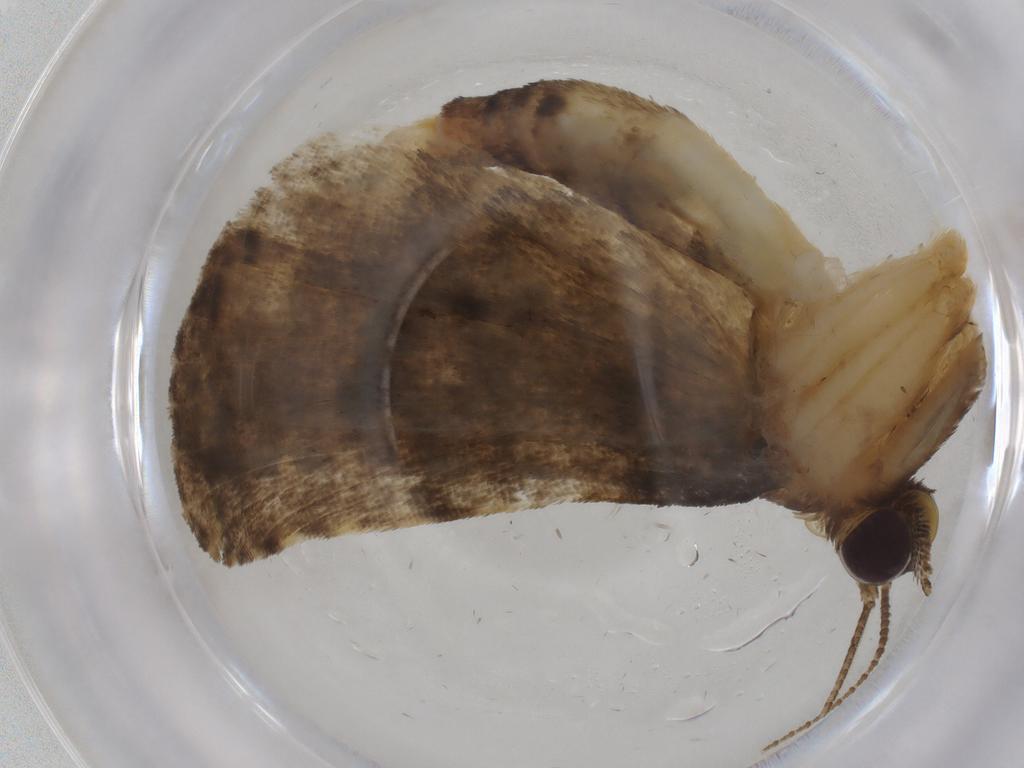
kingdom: Animalia
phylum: Arthropoda
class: Insecta
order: Lepidoptera
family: Erebidae
